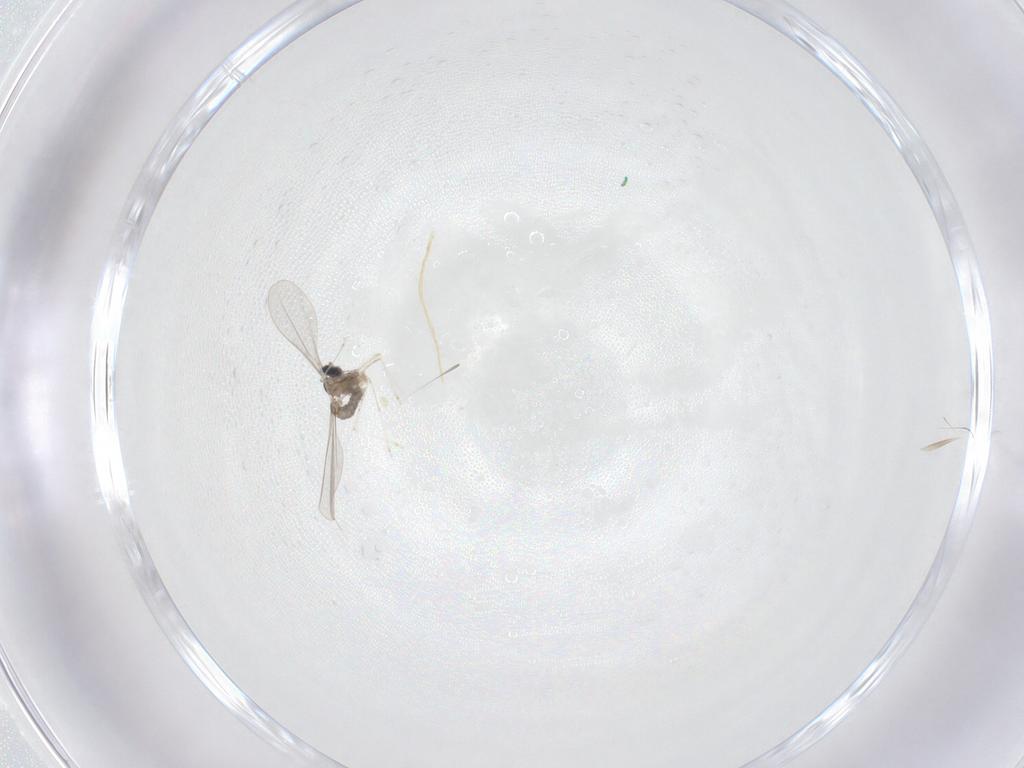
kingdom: Animalia
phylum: Arthropoda
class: Insecta
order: Diptera
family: Cecidomyiidae
